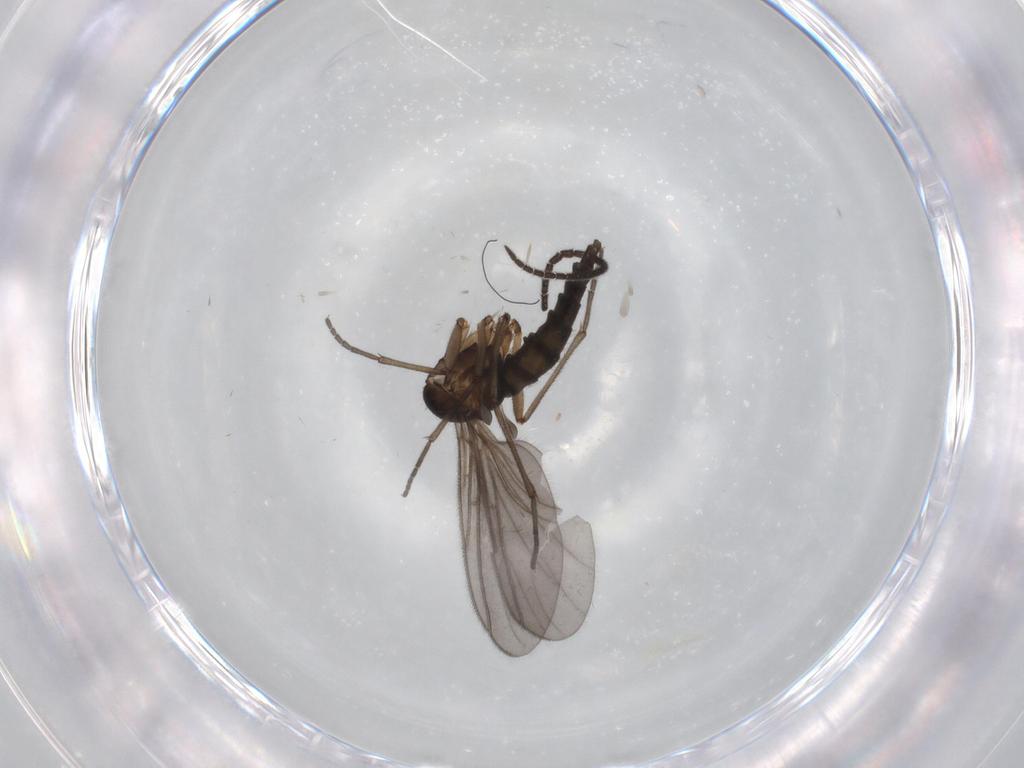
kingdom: Animalia
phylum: Arthropoda
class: Insecta
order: Diptera
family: Sciaridae
